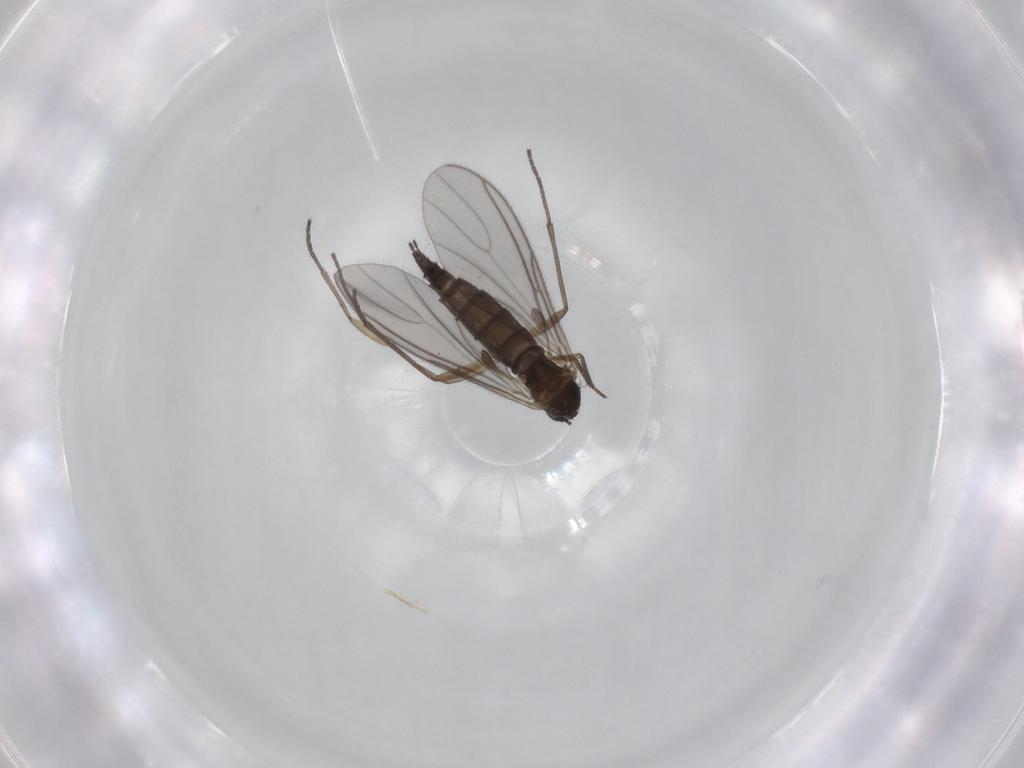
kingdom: Animalia
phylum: Arthropoda
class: Insecta
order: Diptera
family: Sciaridae
